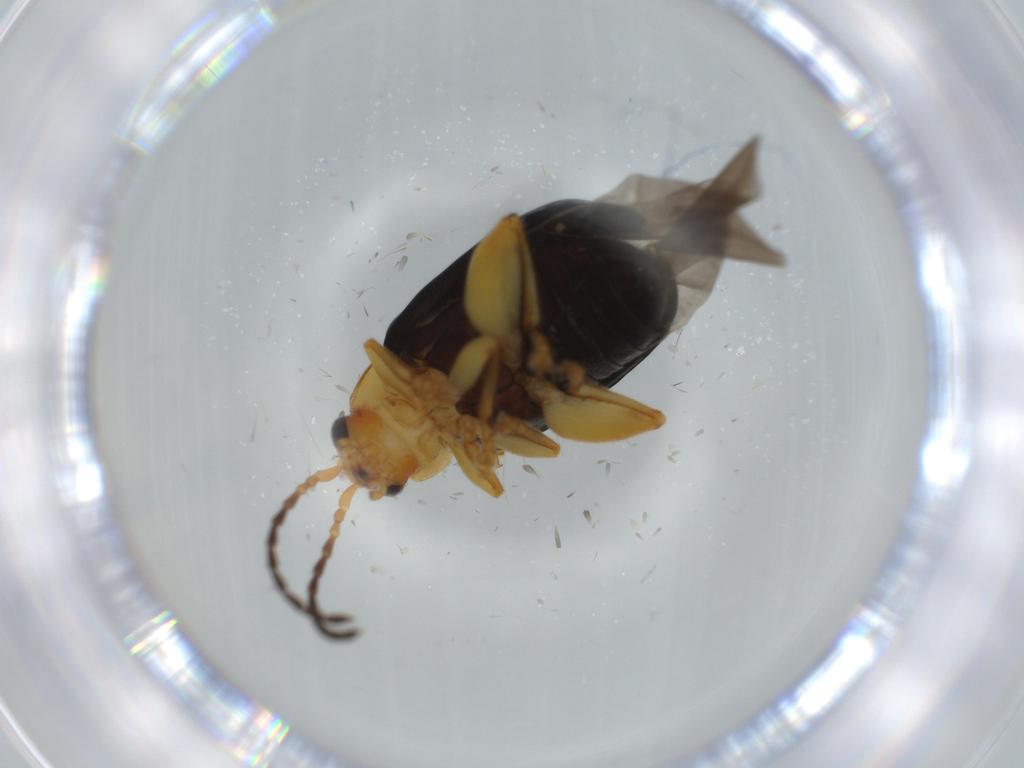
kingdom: Animalia
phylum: Arthropoda
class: Insecta
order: Coleoptera
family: Chrysomelidae
